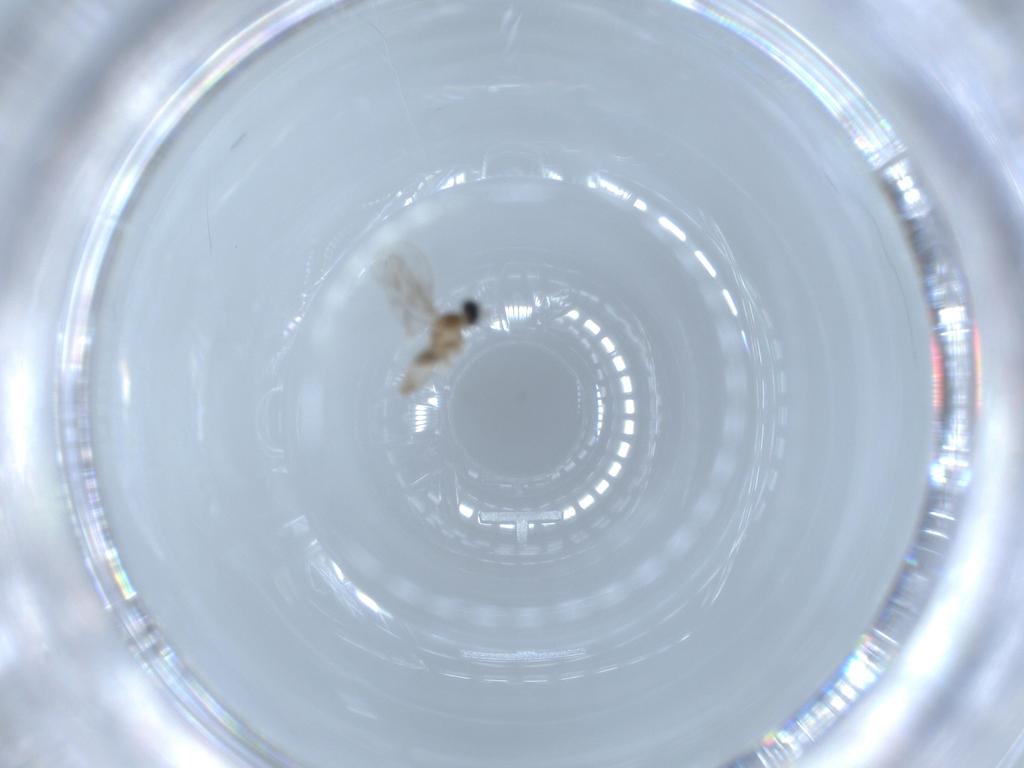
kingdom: Animalia
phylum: Arthropoda
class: Insecta
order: Diptera
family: Cecidomyiidae
